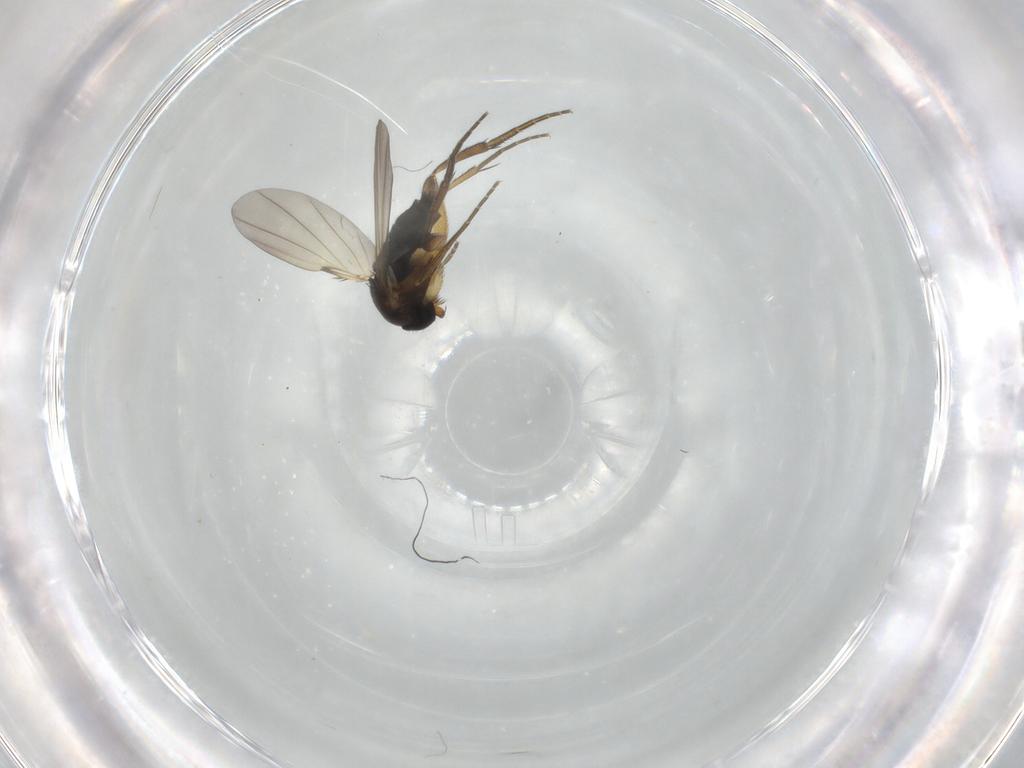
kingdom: Animalia
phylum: Arthropoda
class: Insecta
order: Diptera
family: Phoridae
